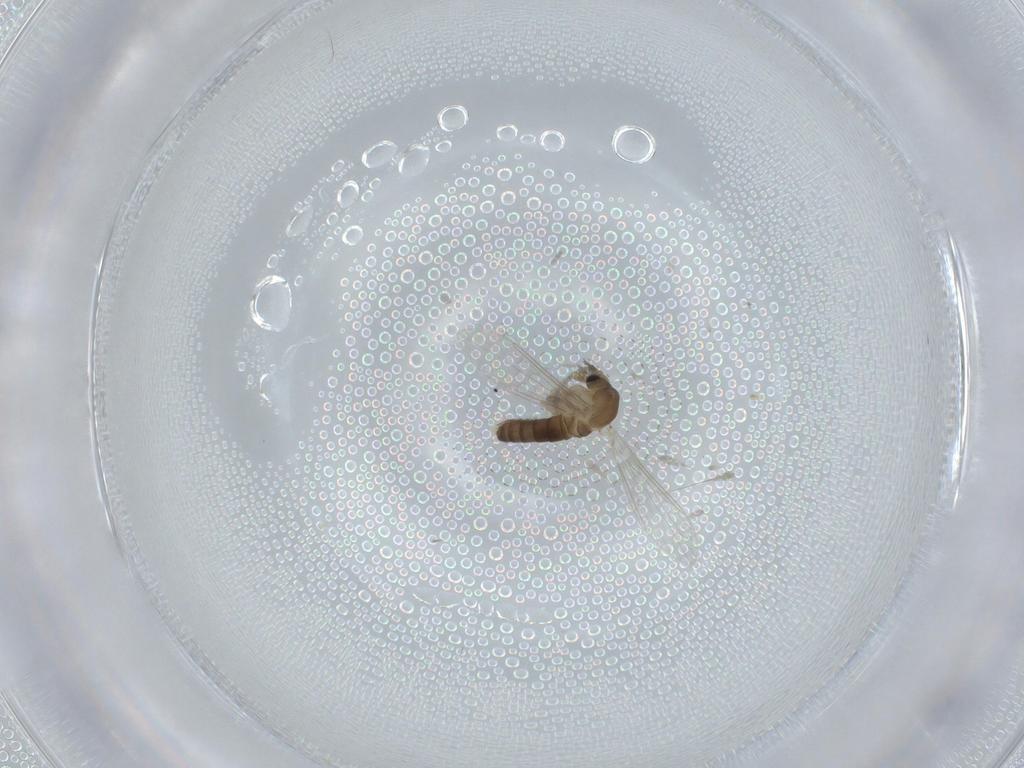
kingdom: Animalia
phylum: Arthropoda
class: Insecta
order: Diptera
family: Psychodidae
